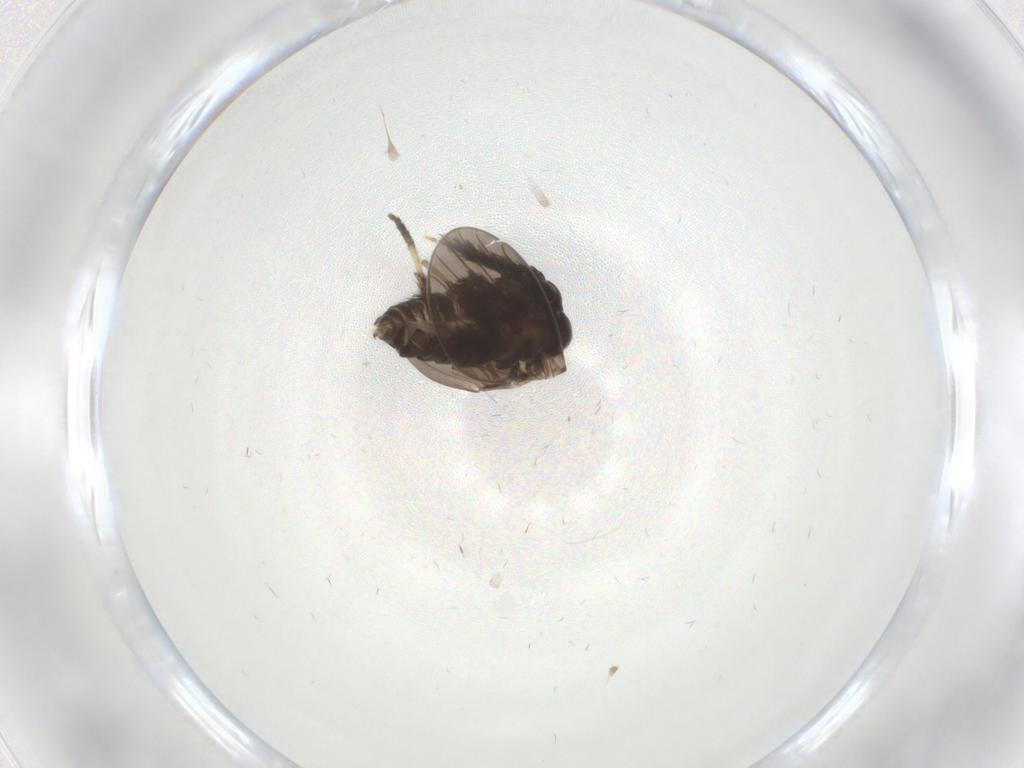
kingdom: Animalia
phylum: Arthropoda
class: Insecta
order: Diptera
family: Psychodidae
